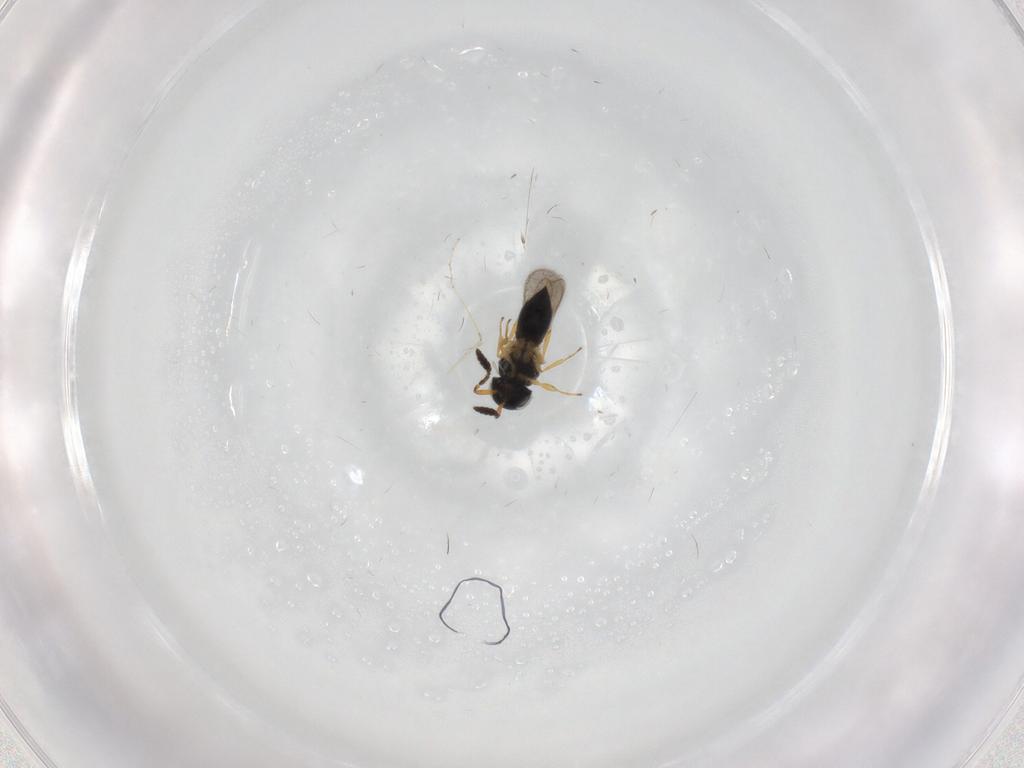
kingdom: Animalia
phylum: Arthropoda
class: Insecta
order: Hymenoptera
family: Scelionidae
